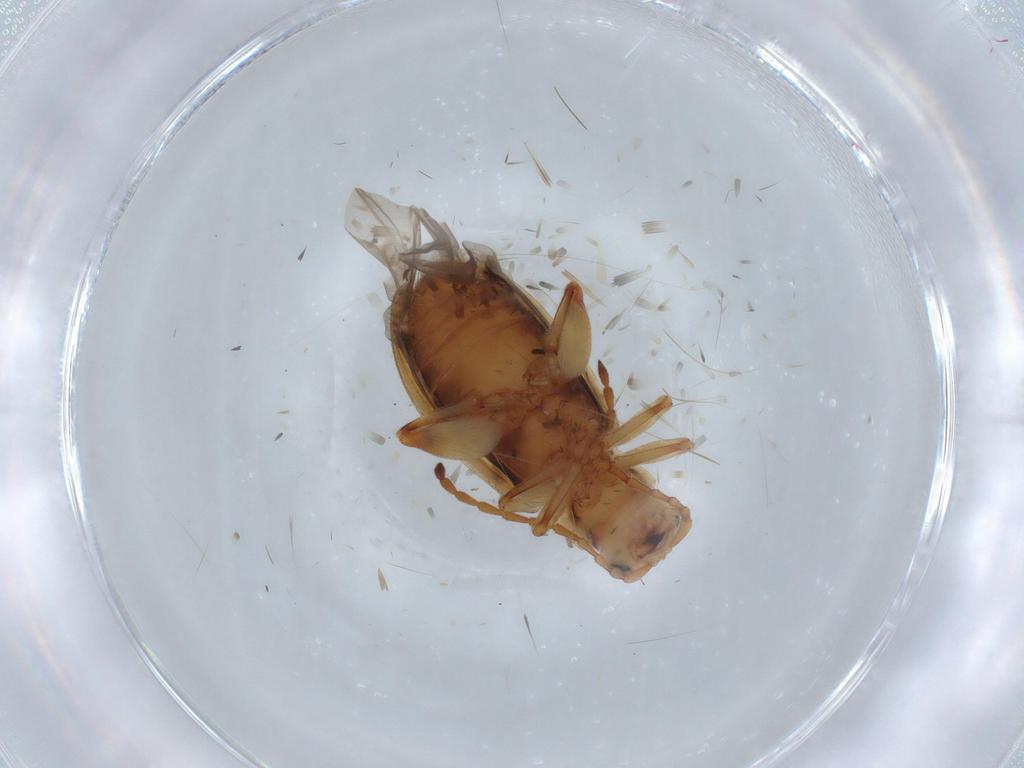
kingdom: Animalia
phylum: Arthropoda
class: Insecta
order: Coleoptera
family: Chrysomelidae
